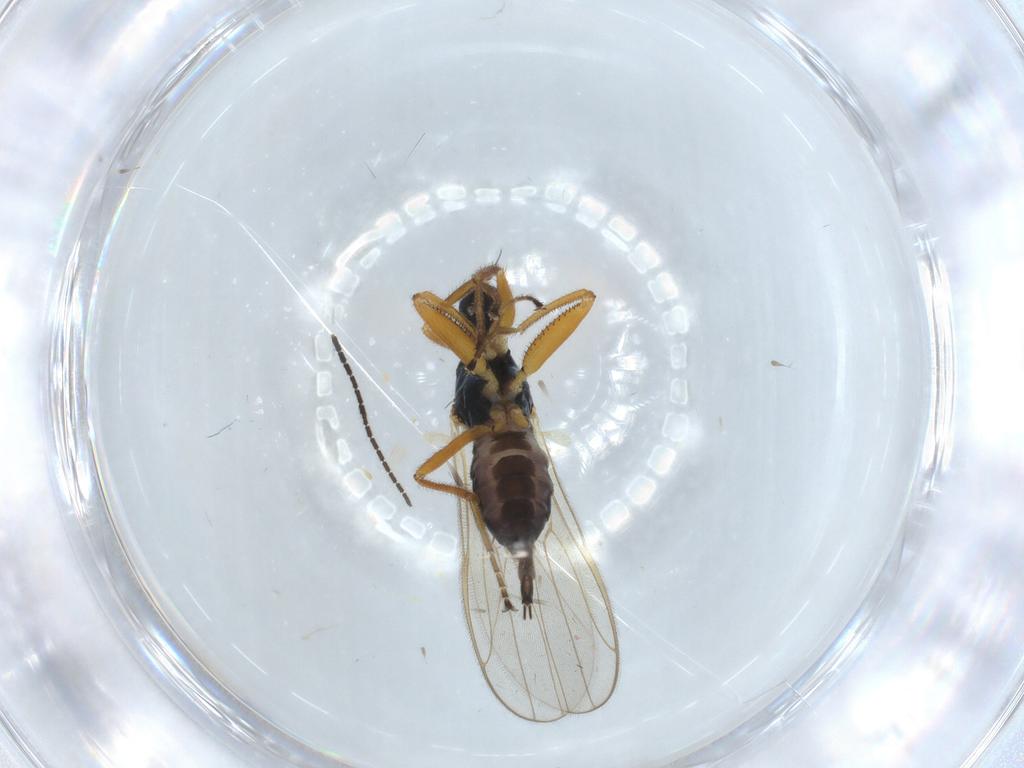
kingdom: Animalia
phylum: Arthropoda
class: Insecta
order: Diptera
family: Hybotidae
